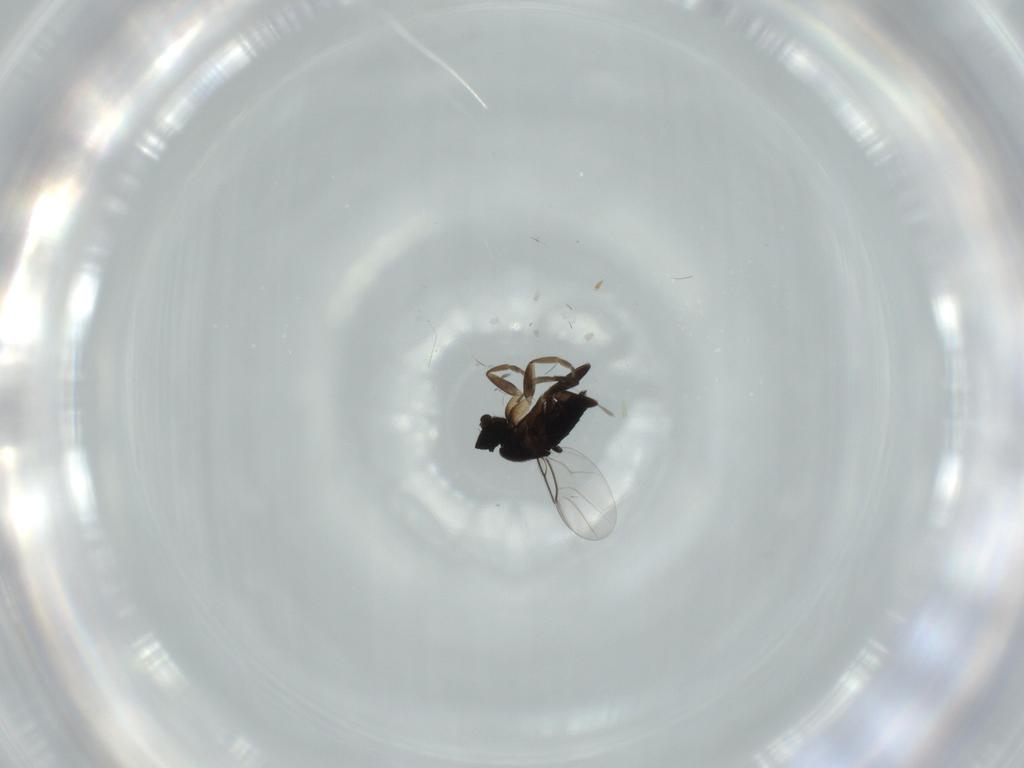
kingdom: Animalia
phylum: Arthropoda
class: Insecta
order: Diptera
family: Phoridae
